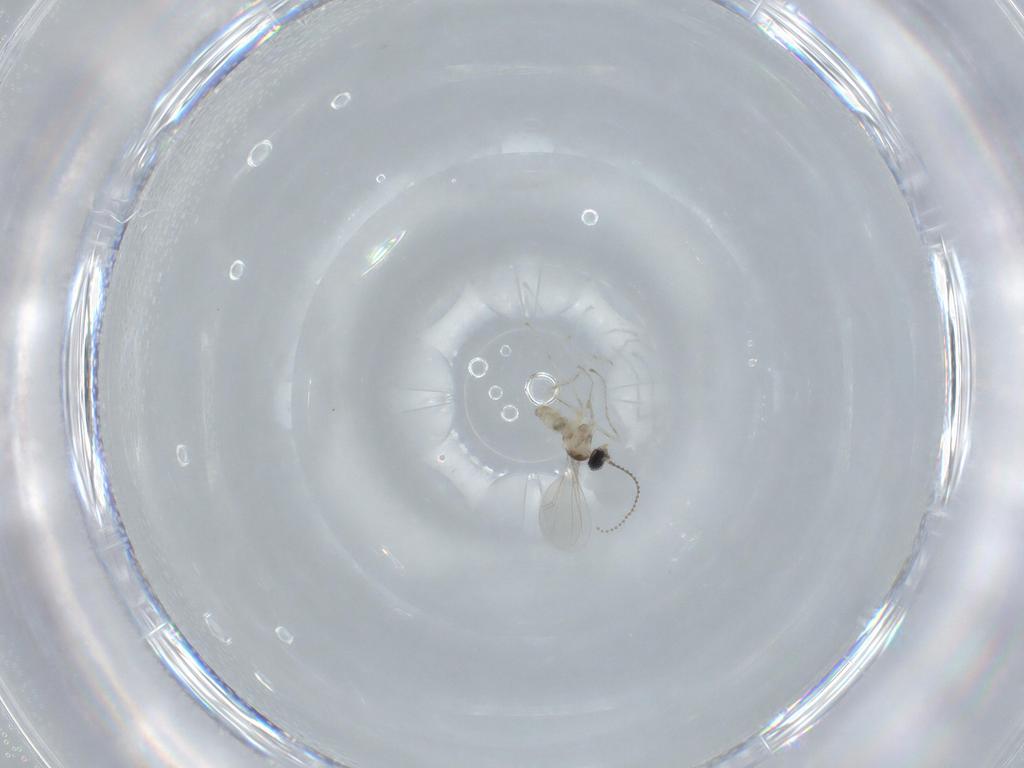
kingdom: Animalia
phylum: Arthropoda
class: Insecta
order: Diptera
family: Cecidomyiidae
